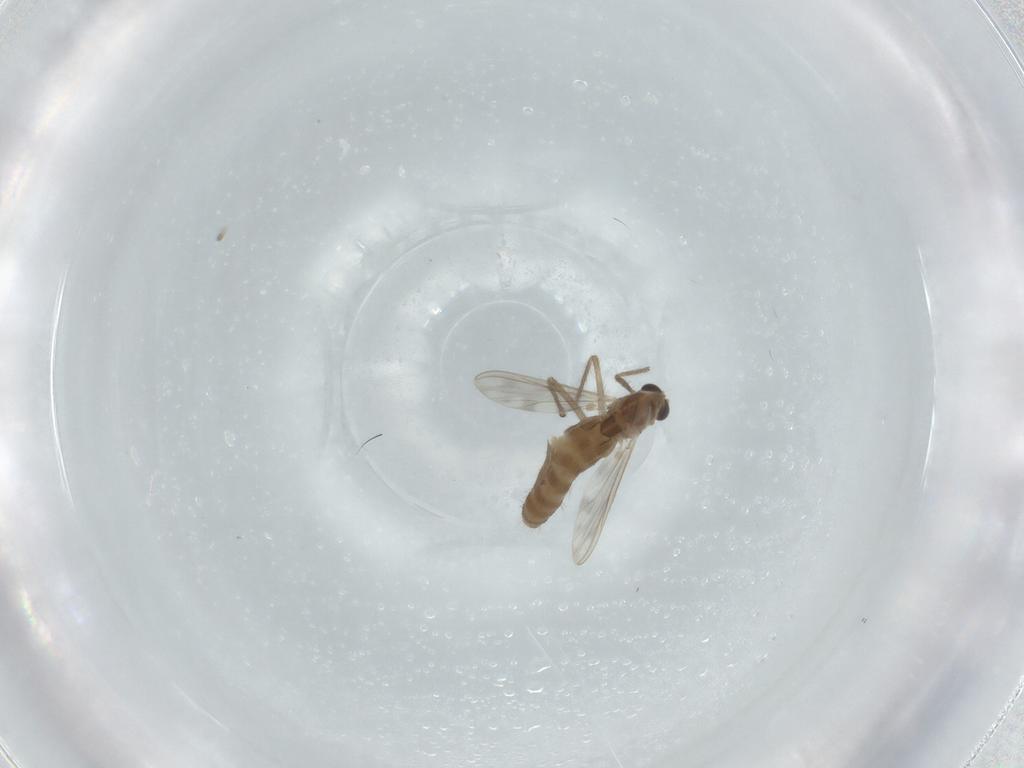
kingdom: Animalia
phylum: Arthropoda
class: Insecta
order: Diptera
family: Chironomidae
